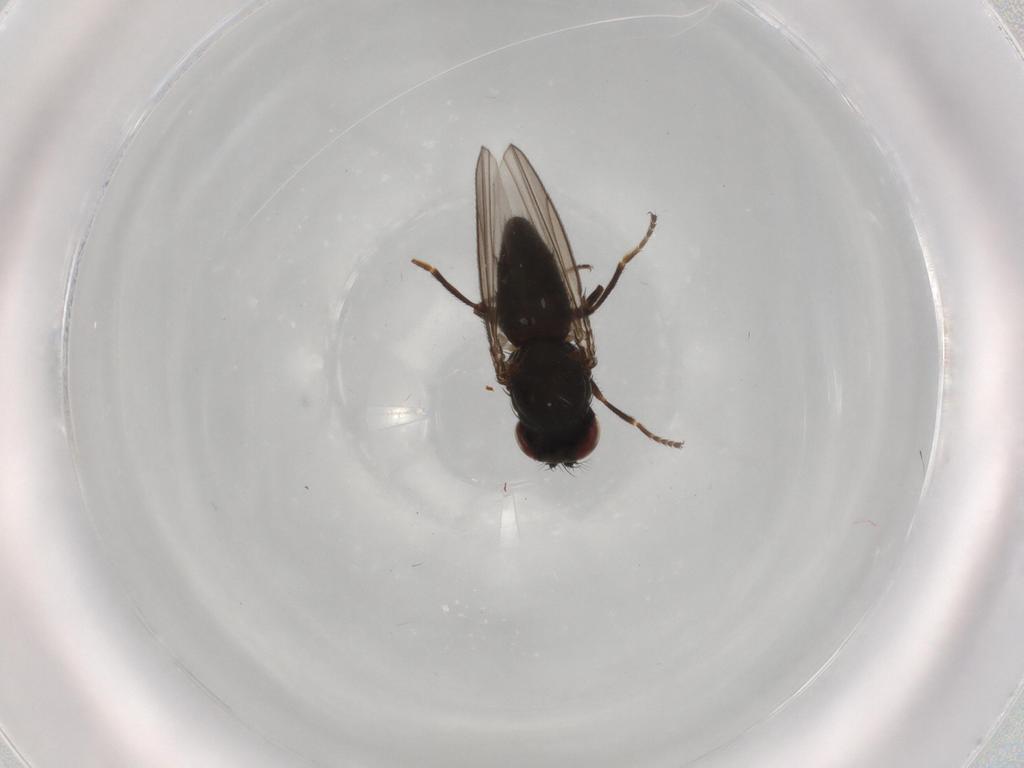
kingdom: Animalia
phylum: Arthropoda
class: Insecta
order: Diptera
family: Ephydridae
